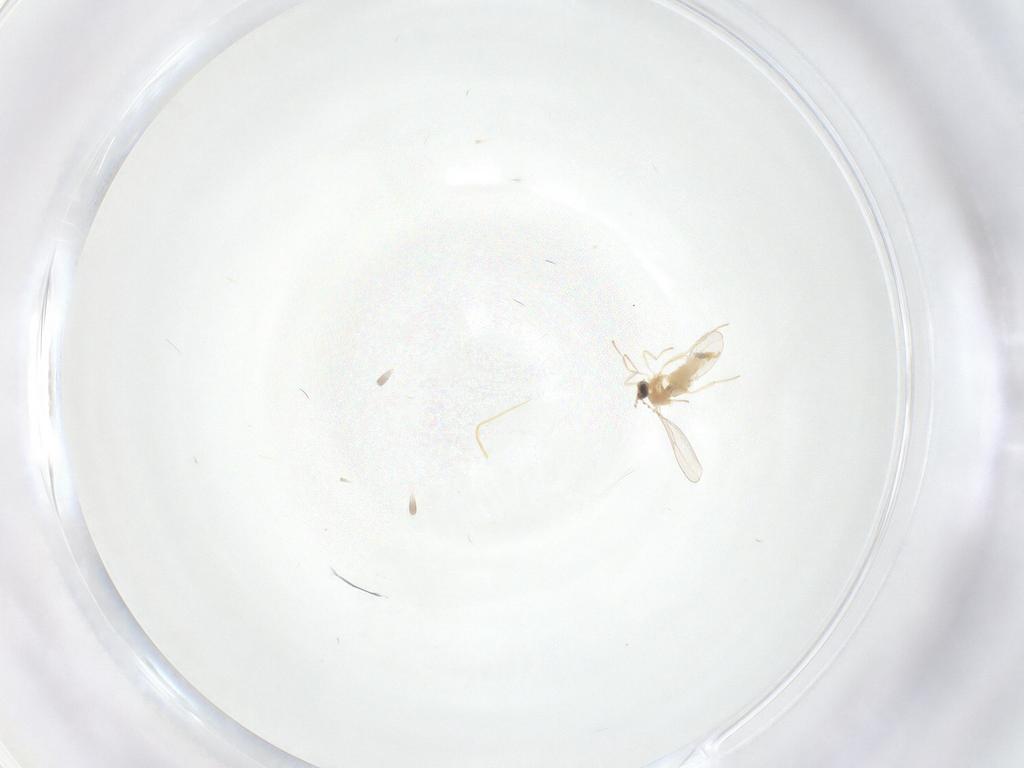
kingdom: Animalia
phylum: Arthropoda
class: Insecta
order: Diptera
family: Cecidomyiidae
